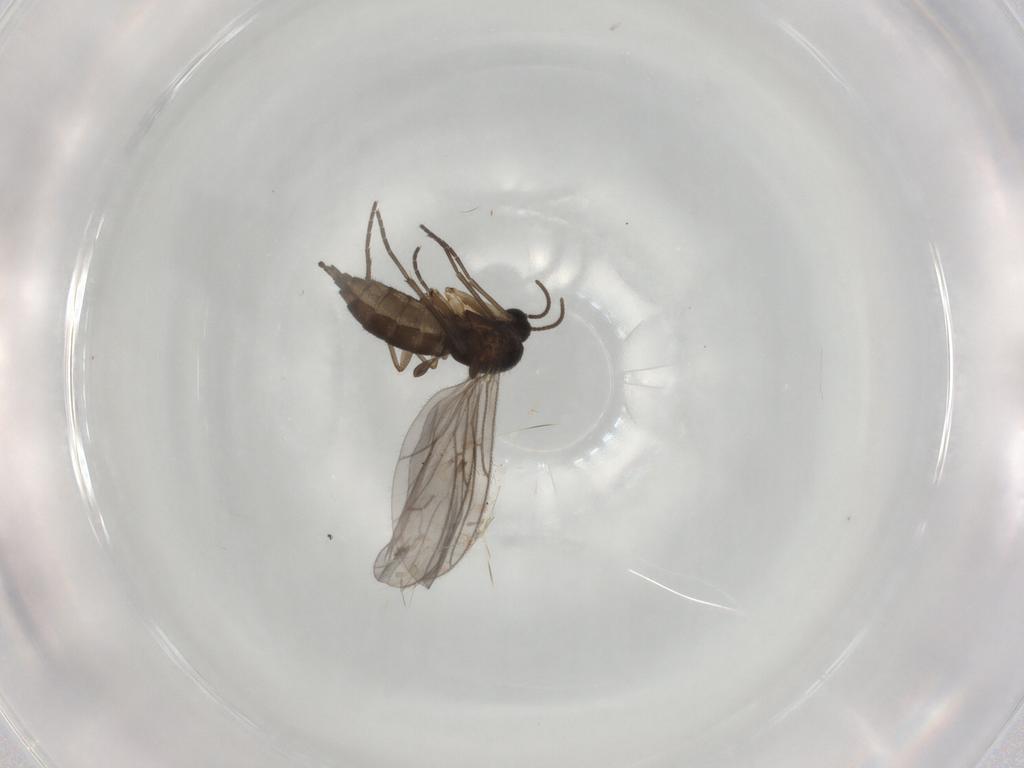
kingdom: Animalia
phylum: Arthropoda
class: Insecta
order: Diptera
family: Sciaridae
